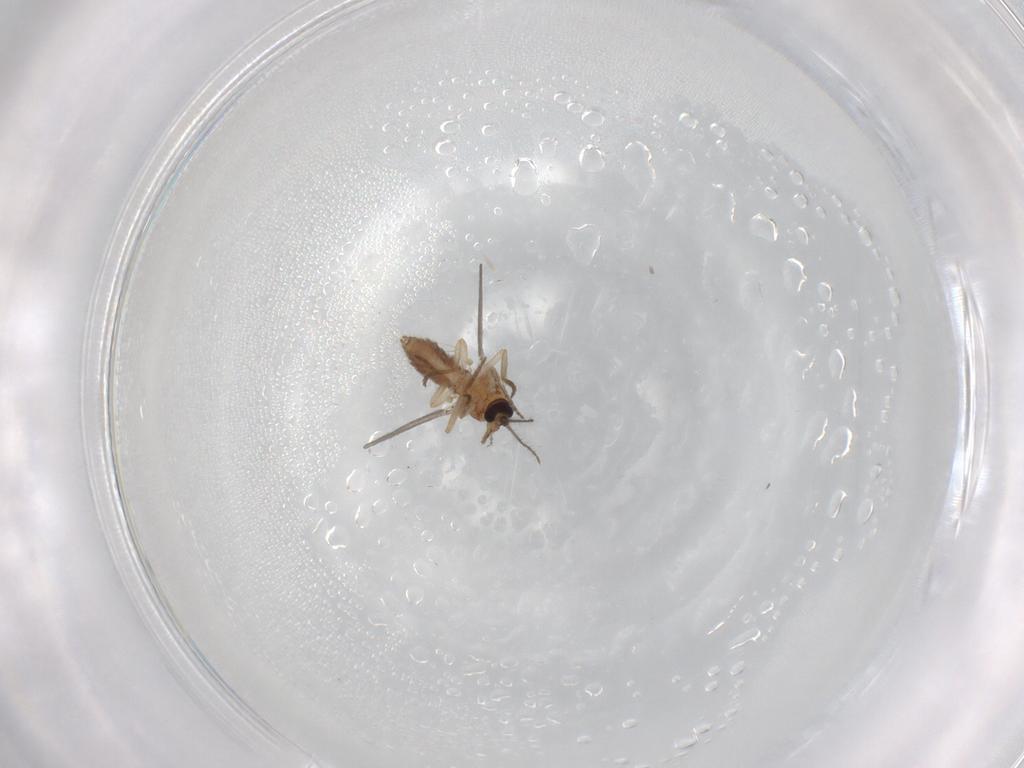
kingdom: Animalia
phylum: Arthropoda
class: Insecta
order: Diptera
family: Ceratopogonidae
